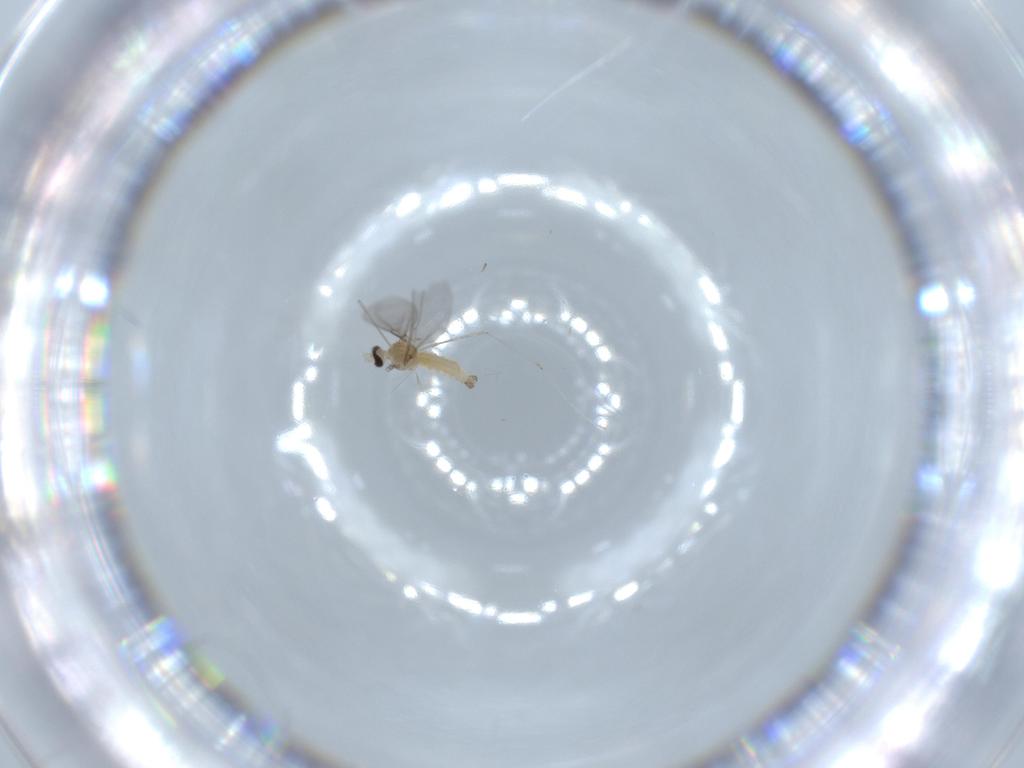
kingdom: Animalia
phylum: Arthropoda
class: Insecta
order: Diptera
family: Cecidomyiidae
